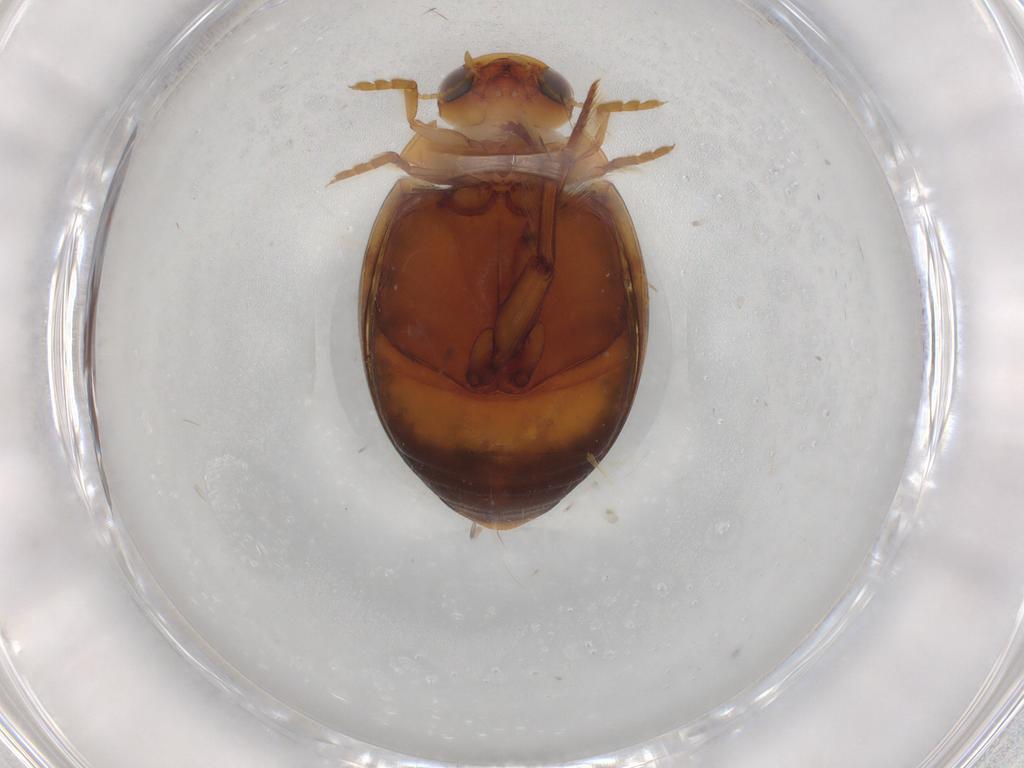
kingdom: Animalia
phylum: Arthropoda
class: Insecta
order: Coleoptera
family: Dytiscidae
